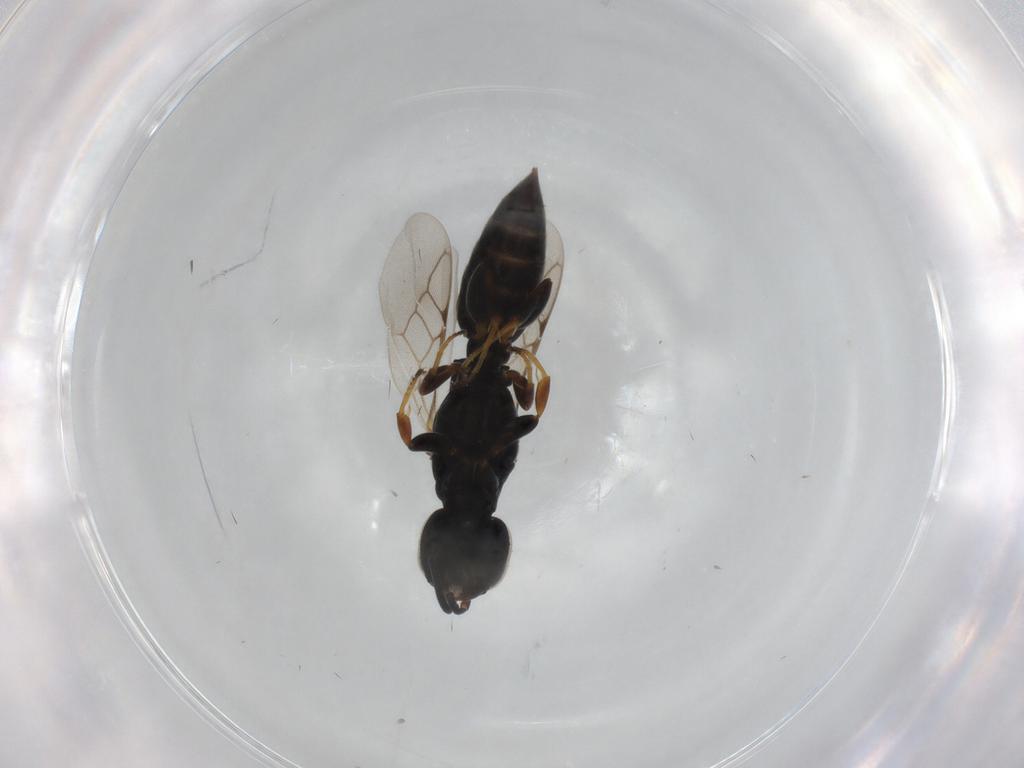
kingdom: Animalia
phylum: Arthropoda
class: Insecta
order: Hymenoptera
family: Crabronidae
